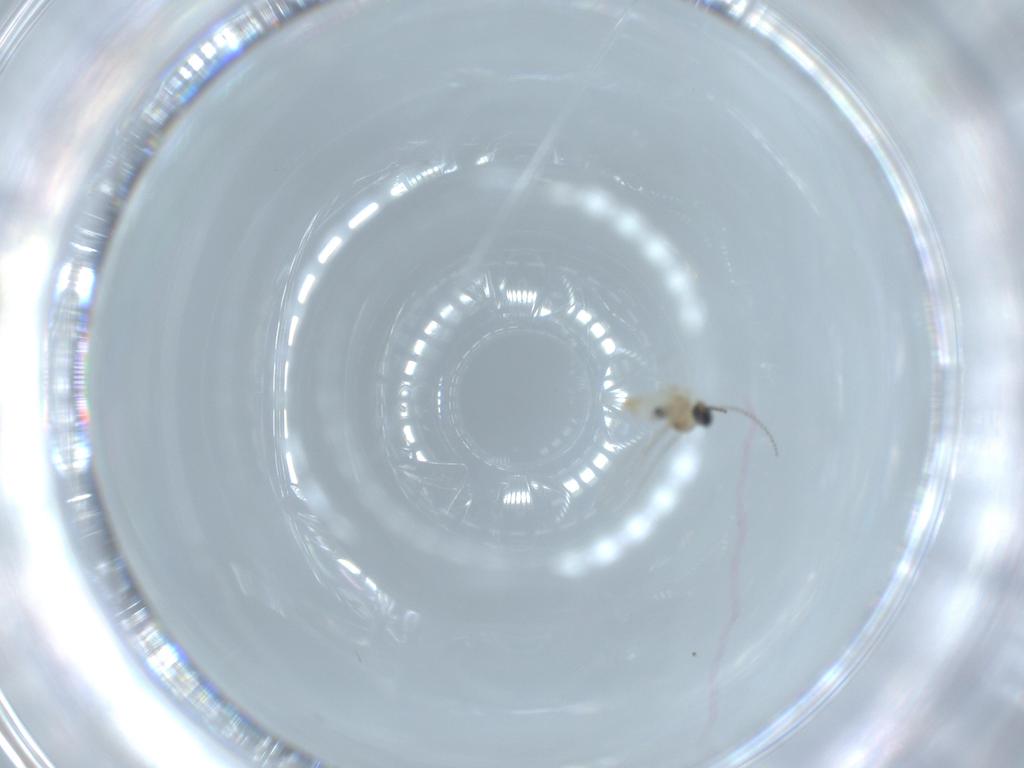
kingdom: Animalia
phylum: Arthropoda
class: Insecta
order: Diptera
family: Cecidomyiidae
